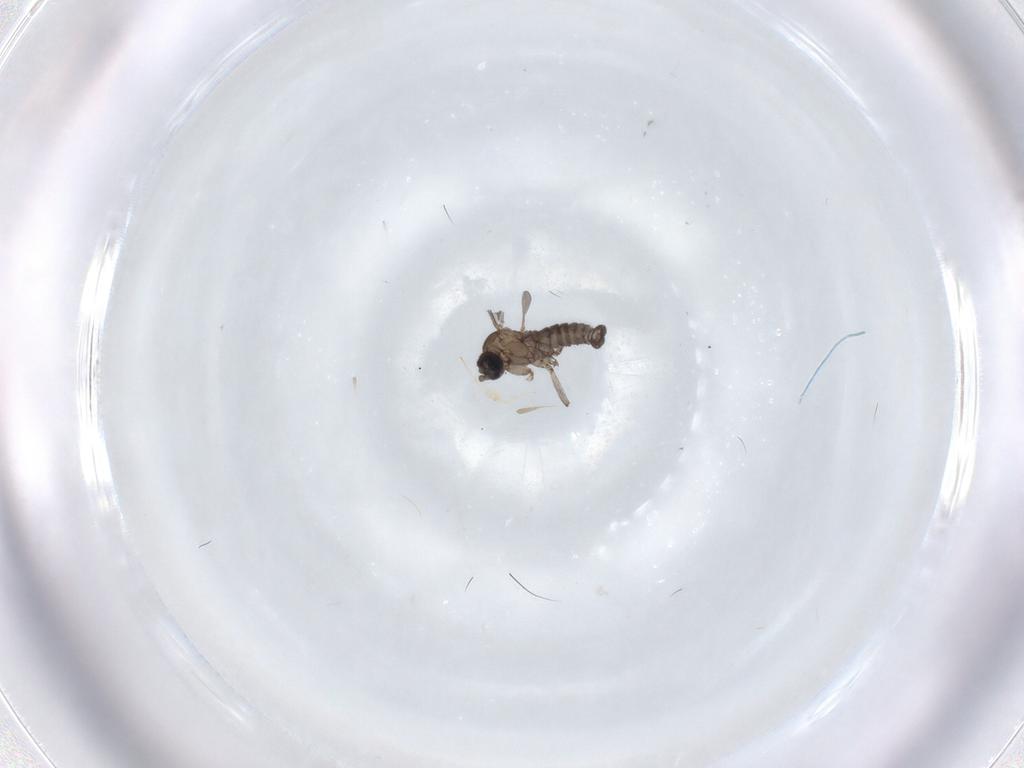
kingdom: Animalia
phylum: Arthropoda
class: Insecta
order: Diptera
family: Sciaridae
